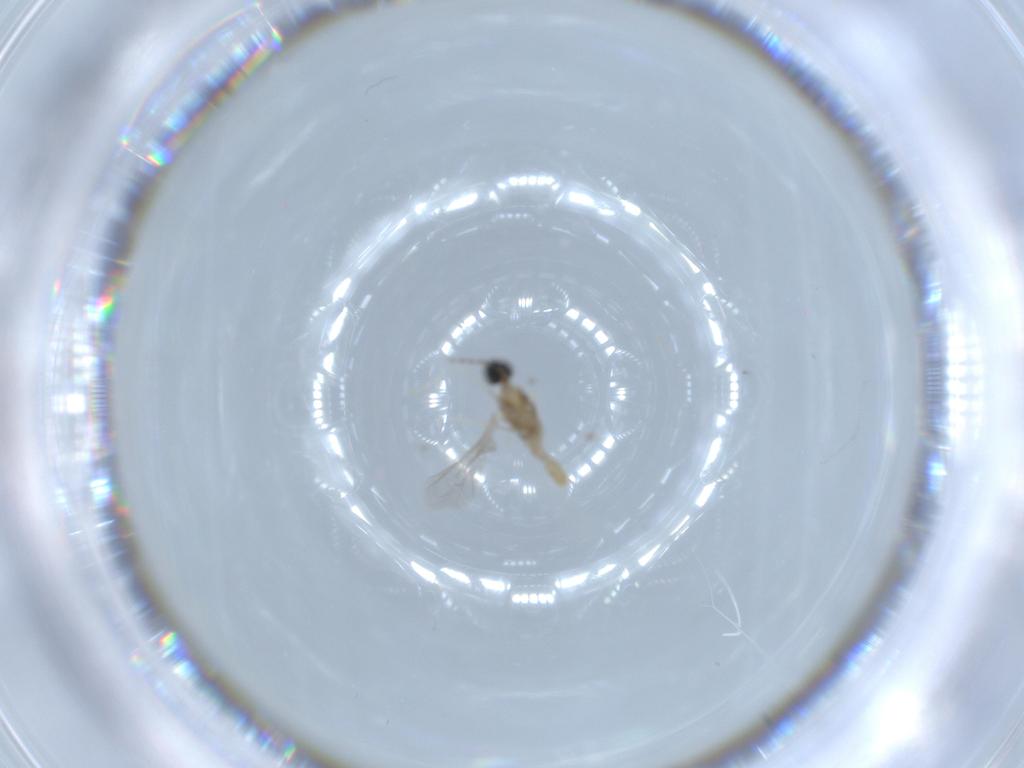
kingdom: Animalia
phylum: Arthropoda
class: Insecta
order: Diptera
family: Cecidomyiidae
